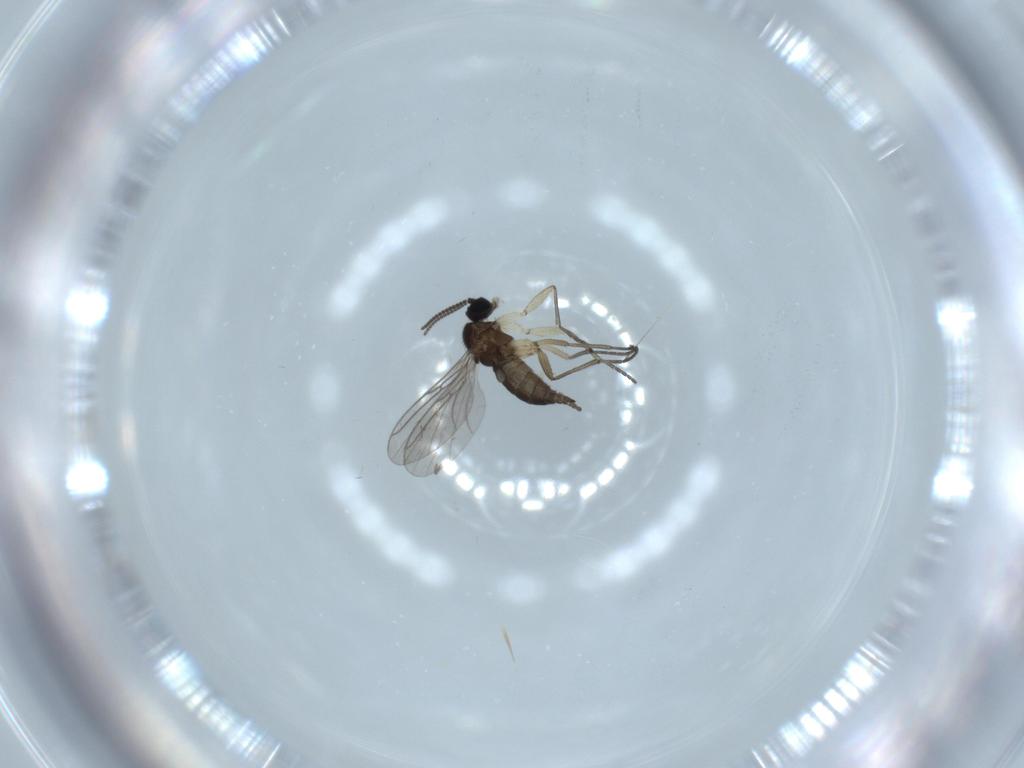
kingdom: Animalia
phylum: Arthropoda
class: Insecta
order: Diptera
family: Sciaridae
